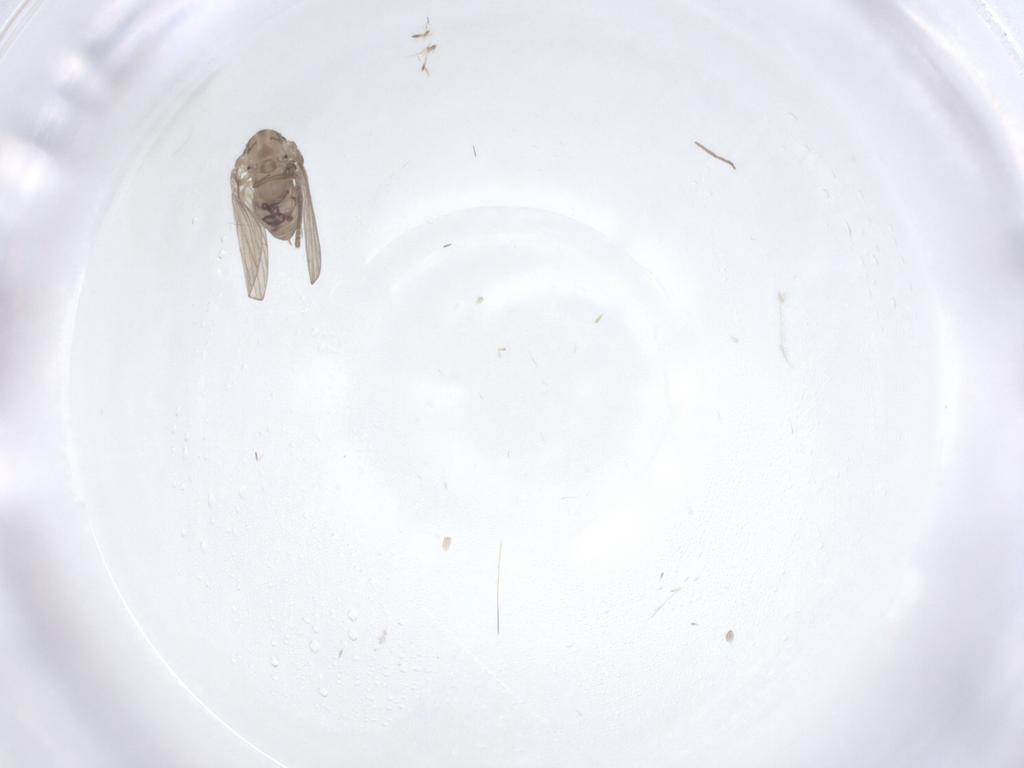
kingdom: Animalia
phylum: Arthropoda
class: Insecta
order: Diptera
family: Psychodidae
